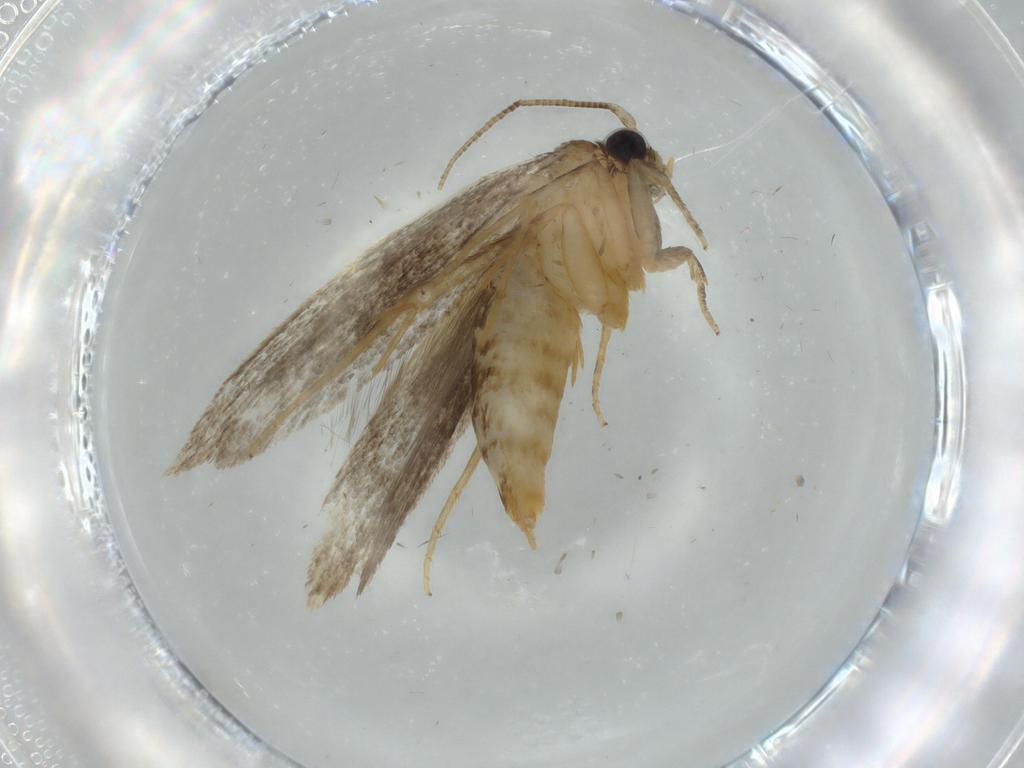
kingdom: Animalia
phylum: Arthropoda
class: Insecta
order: Lepidoptera
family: Tineidae
